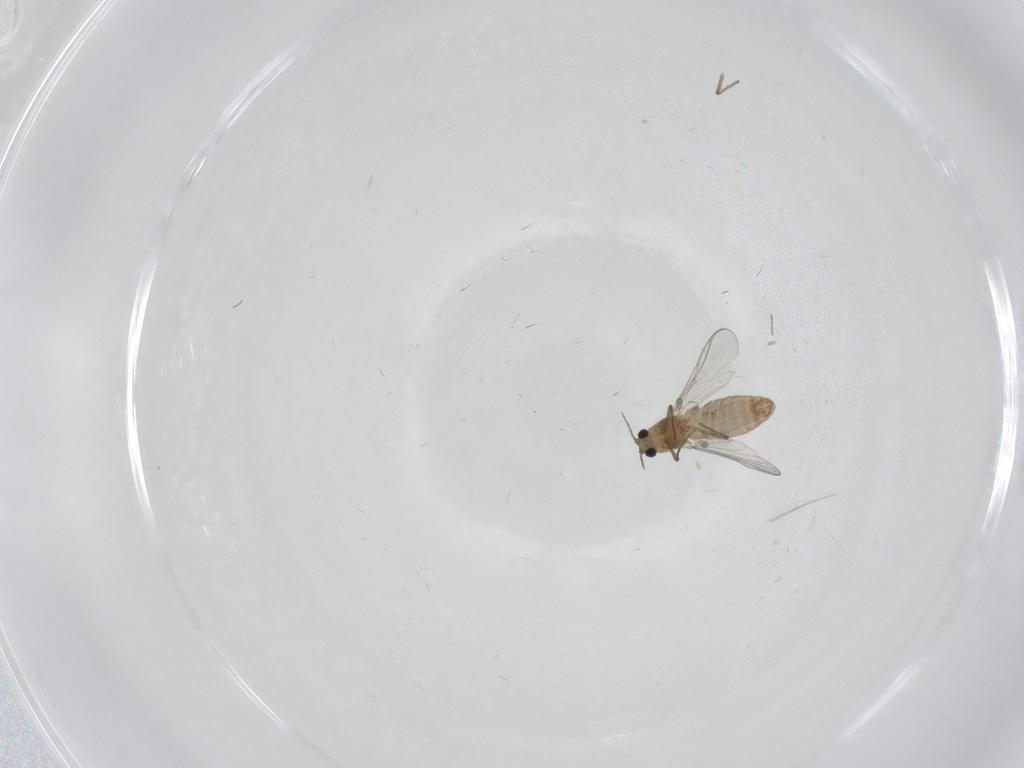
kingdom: Animalia
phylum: Arthropoda
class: Insecta
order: Diptera
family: Chironomidae
